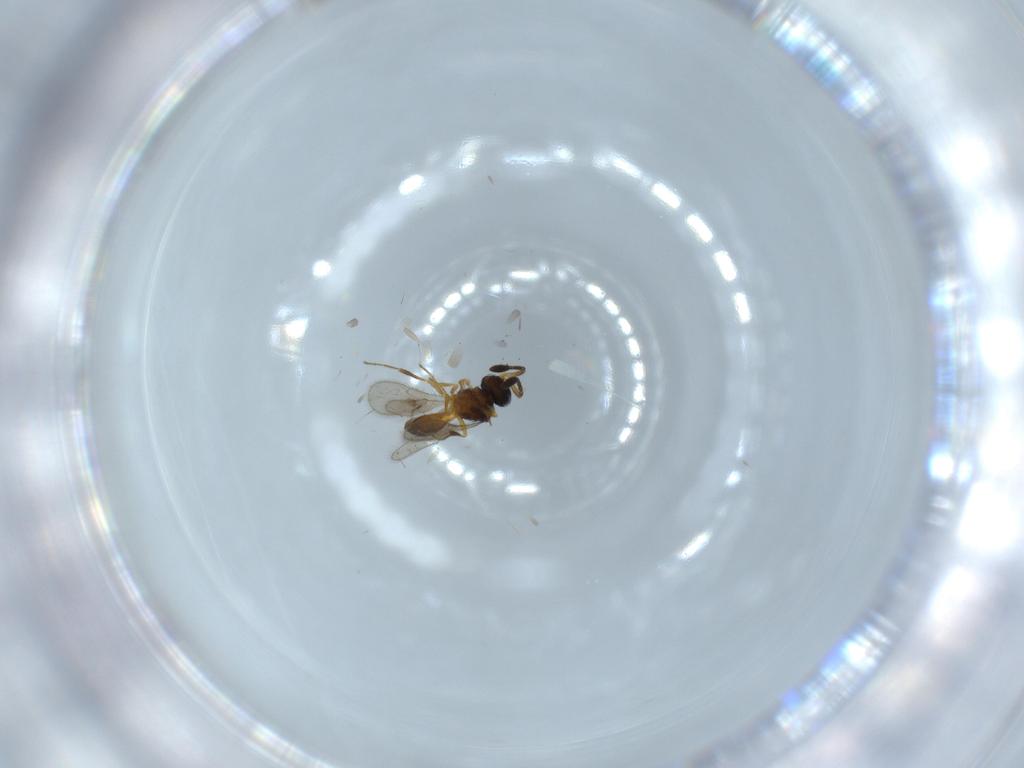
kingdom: Animalia
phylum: Arthropoda
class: Insecta
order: Hymenoptera
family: Scelionidae
